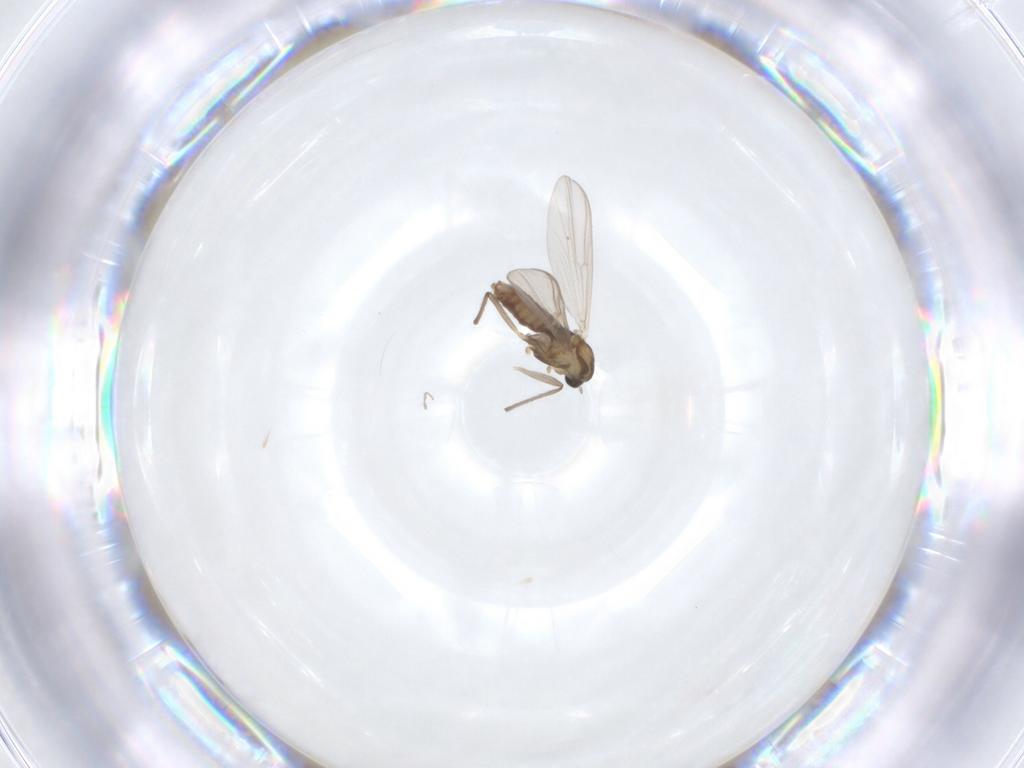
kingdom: Animalia
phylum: Arthropoda
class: Insecta
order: Diptera
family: Chironomidae
